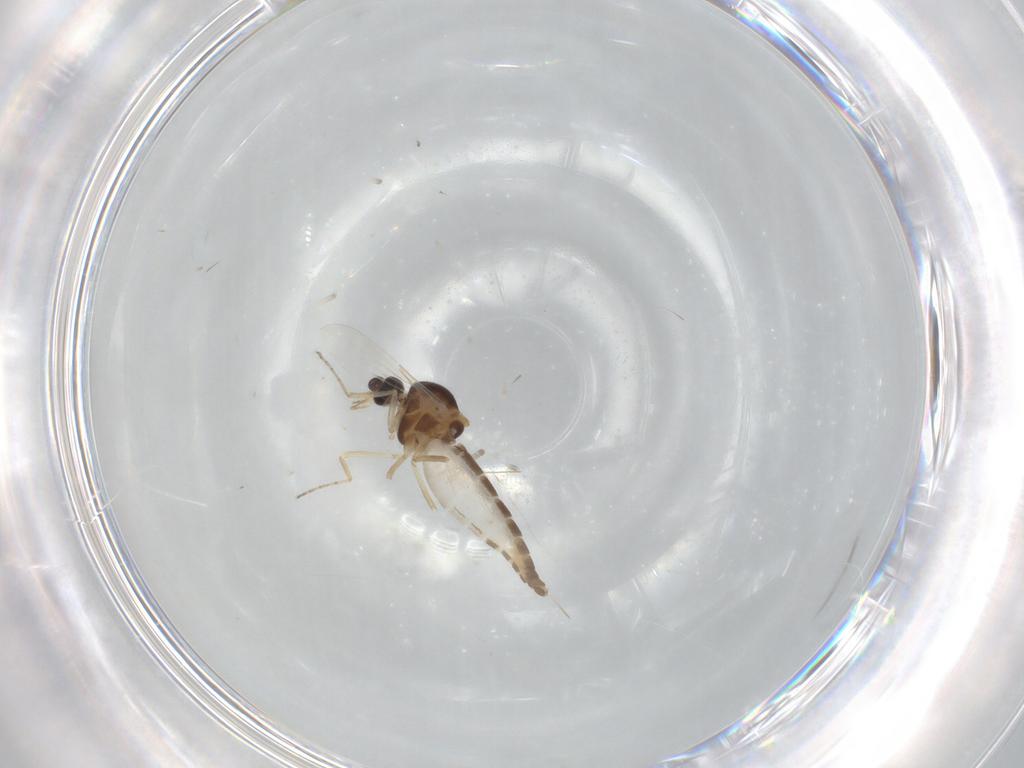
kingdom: Animalia
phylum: Arthropoda
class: Insecta
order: Diptera
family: Ceratopogonidae
